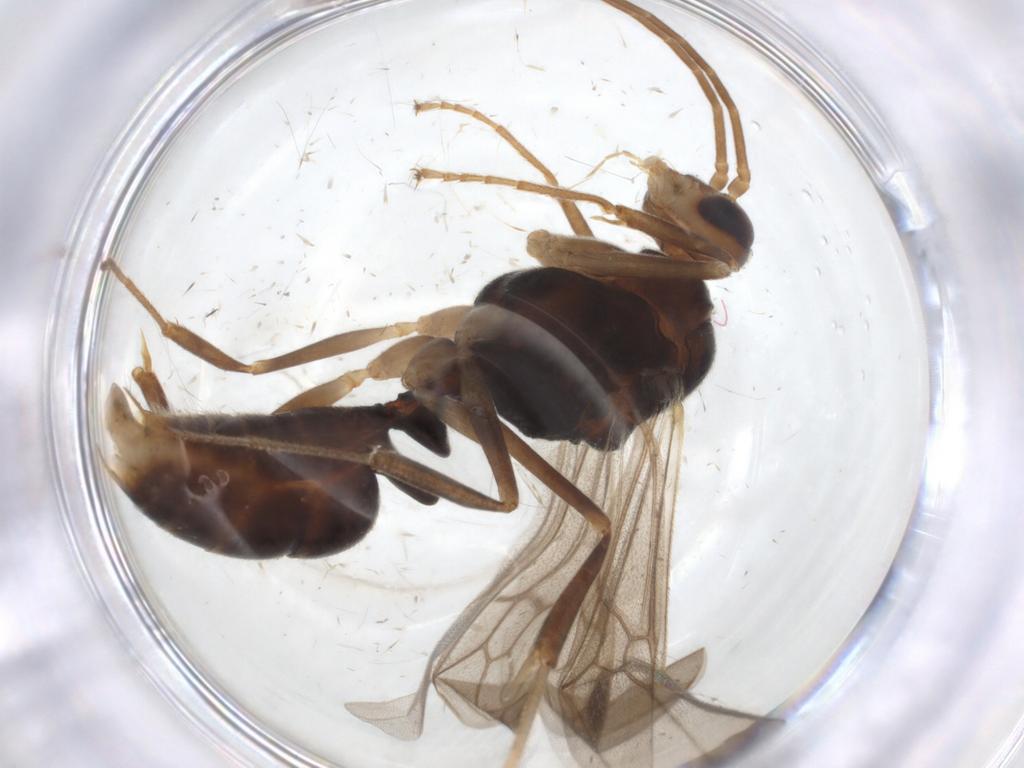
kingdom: Animalia
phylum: Arthropoda
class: Insecta
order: Hymenoptera
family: Formicidae
